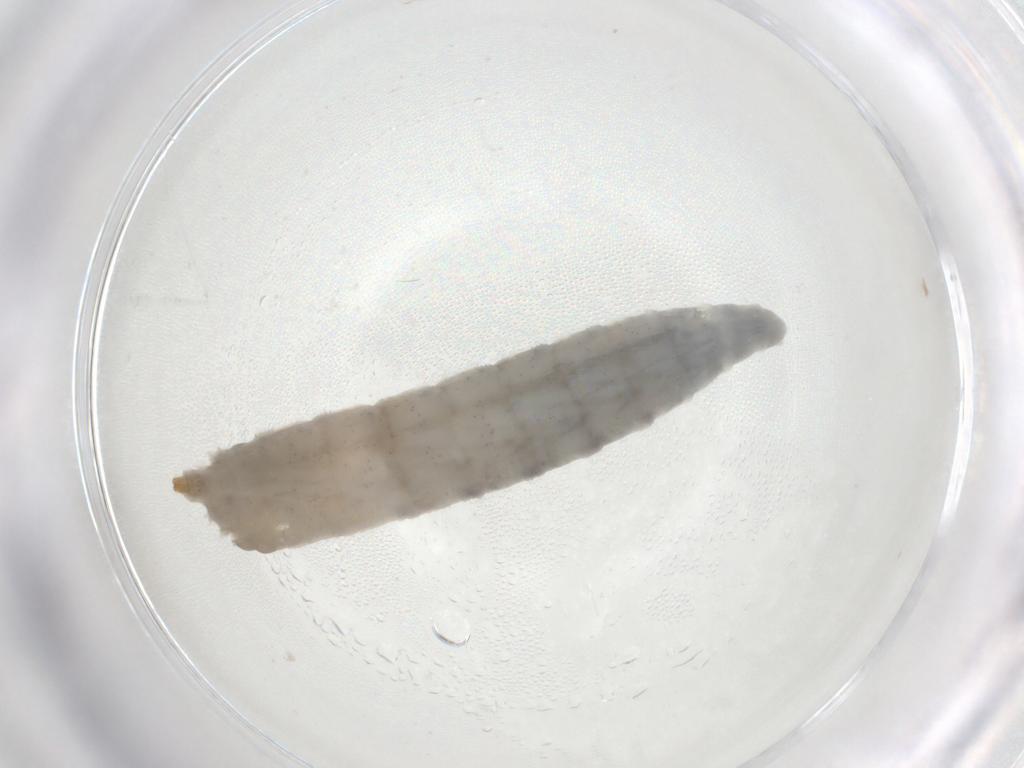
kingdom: Animalia
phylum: Arthropoda
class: Insecta
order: Diptera
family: Drosophilidae
